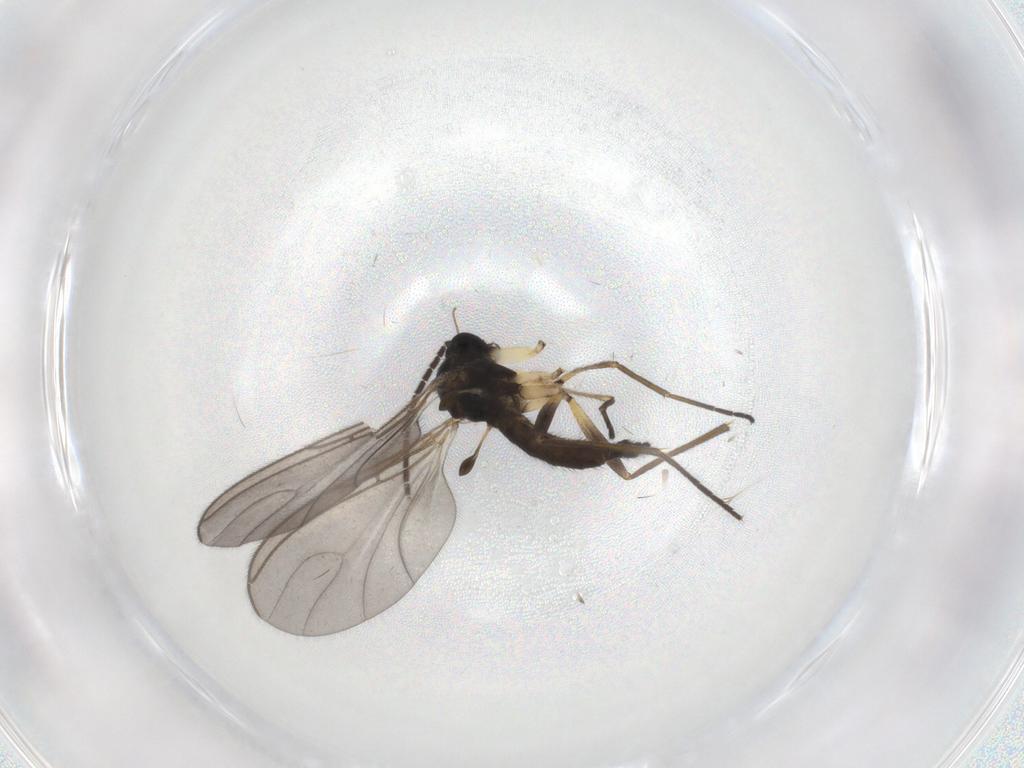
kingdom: Animalia
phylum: Arthropoda
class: Insecta
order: Diptera
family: Sciaridae
